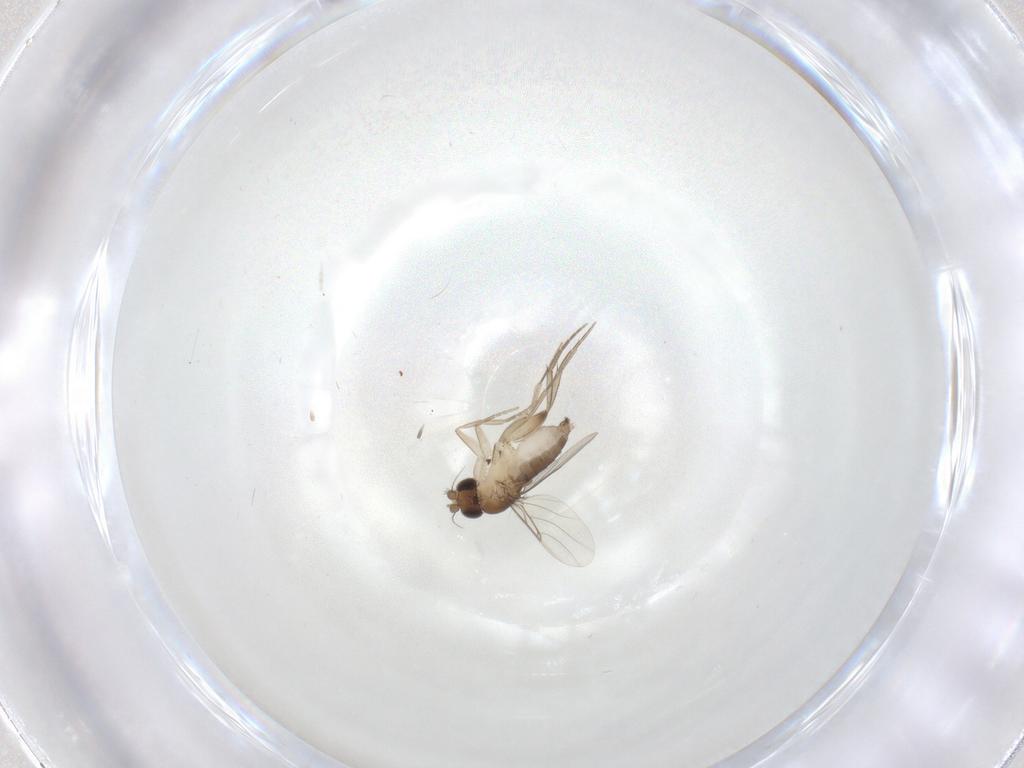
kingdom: Animalia
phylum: Arthropoda
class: Insecta
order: Diptera
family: Phoridae
